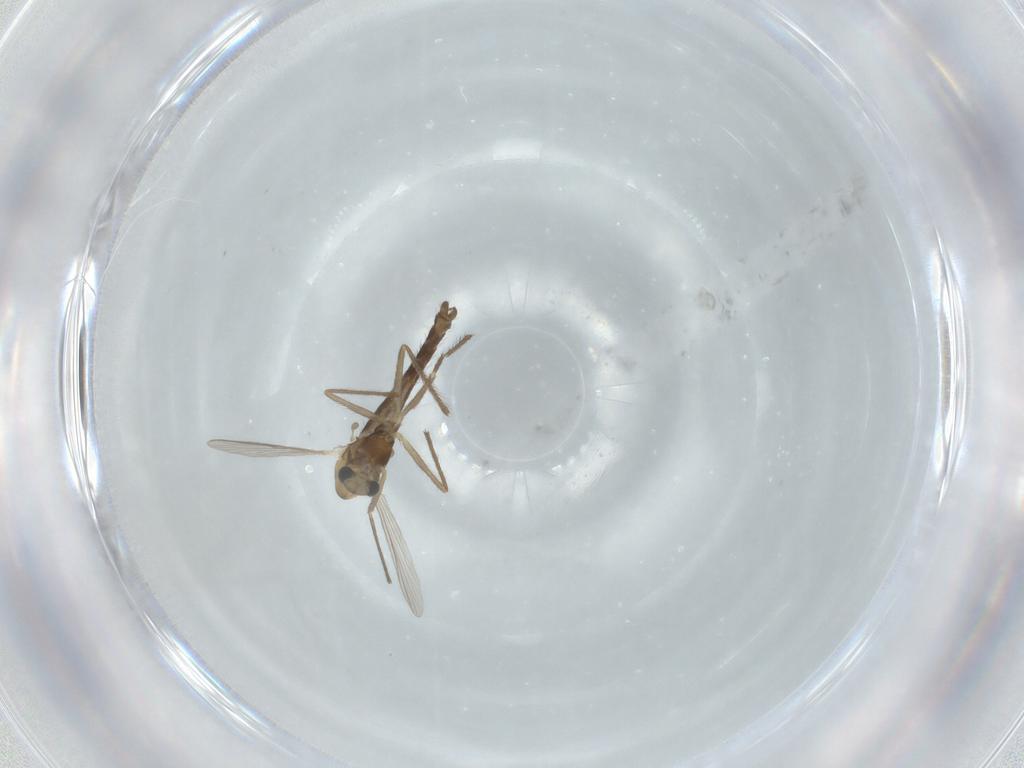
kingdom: Animalia
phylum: Arthropoda
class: Insecta
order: Diptera
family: Chironomidae
